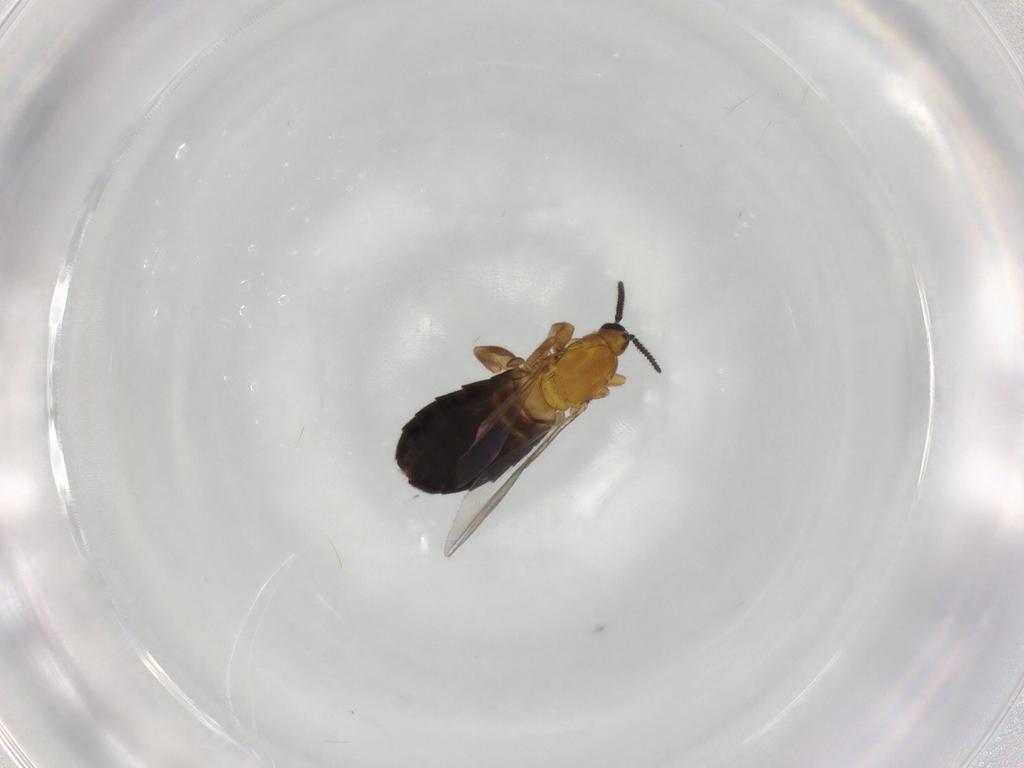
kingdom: Animalia
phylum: Arthropoda
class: Insecta
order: Diptera
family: Scatopsidae
